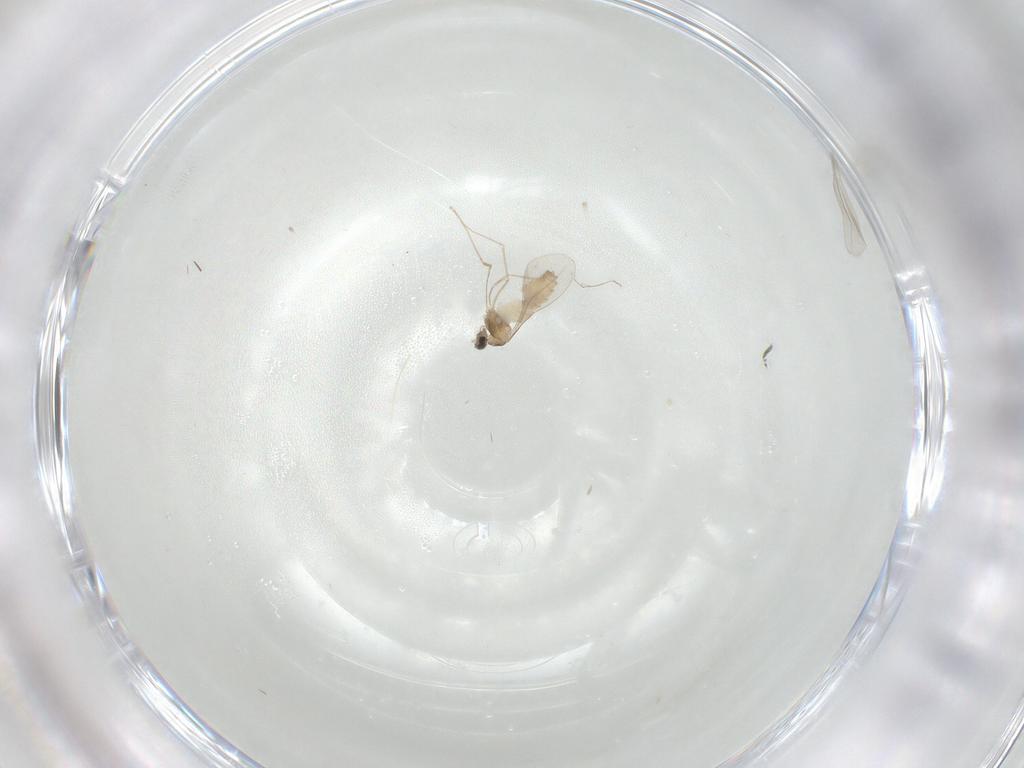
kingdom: Animalia
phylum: Arthropoda
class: Insecta
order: Diptera
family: Cecidomyiidae
